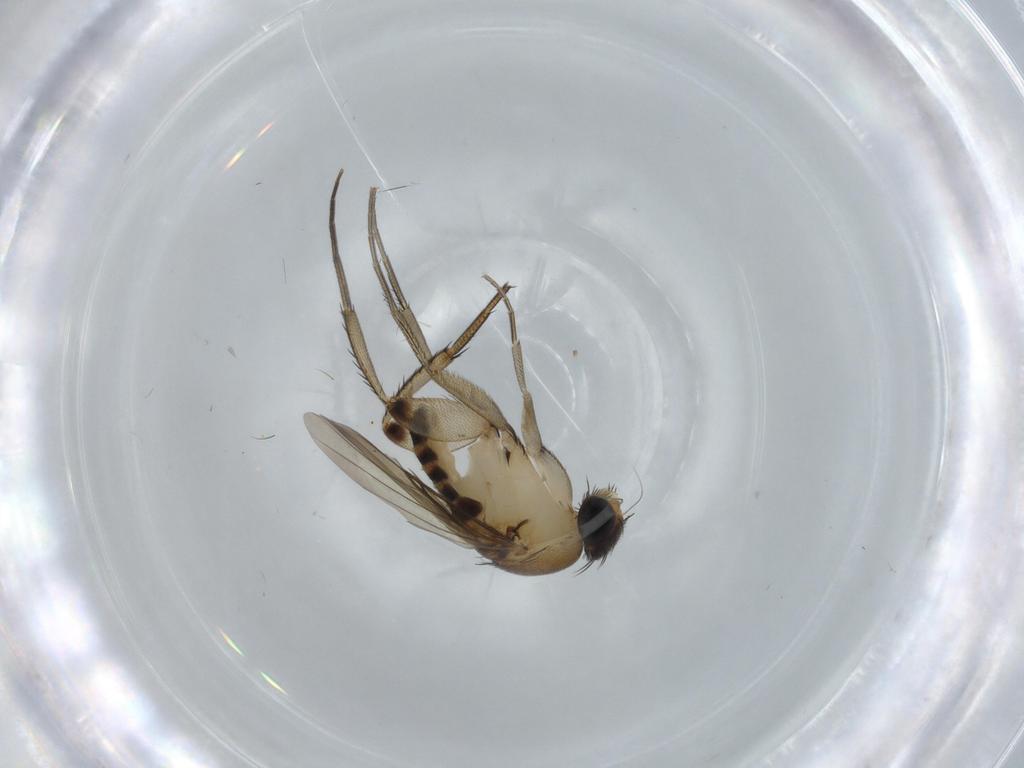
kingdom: Animalia
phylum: Arthropoda
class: Insecta
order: Diptera
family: Phoridae
